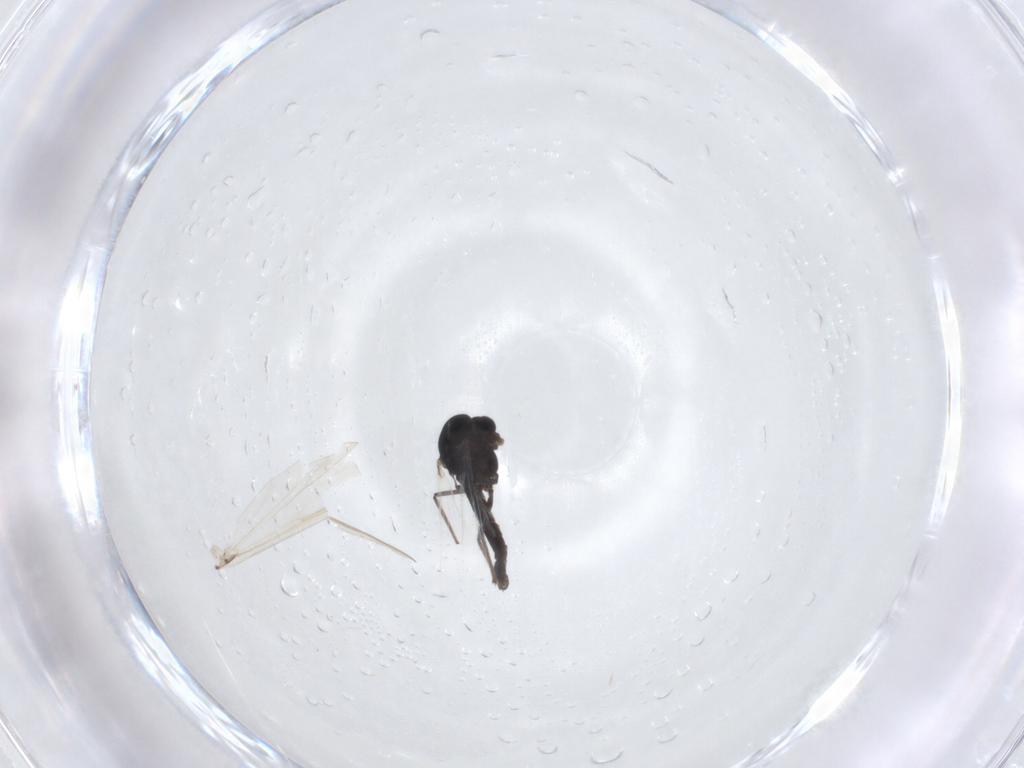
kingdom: Animalia
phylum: Arthropoda
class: Insecta
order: Diptera
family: Chironomidae
